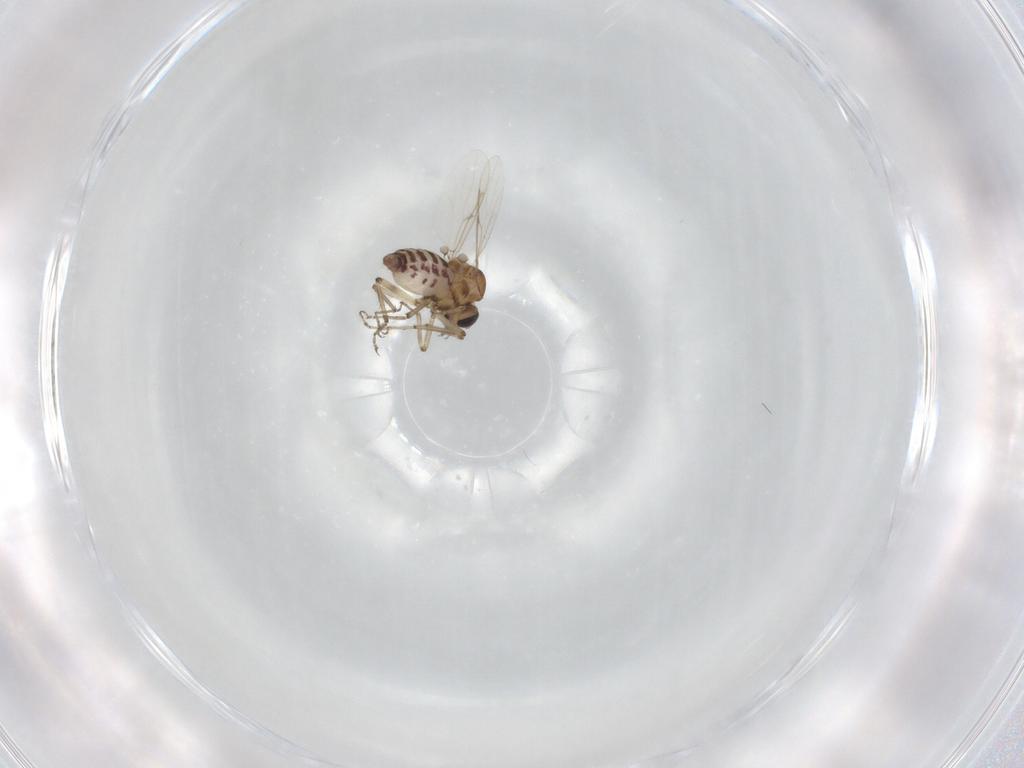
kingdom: Animalia
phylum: Arthropoda
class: Insecta
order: Diptera
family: Ceratopogonidae
